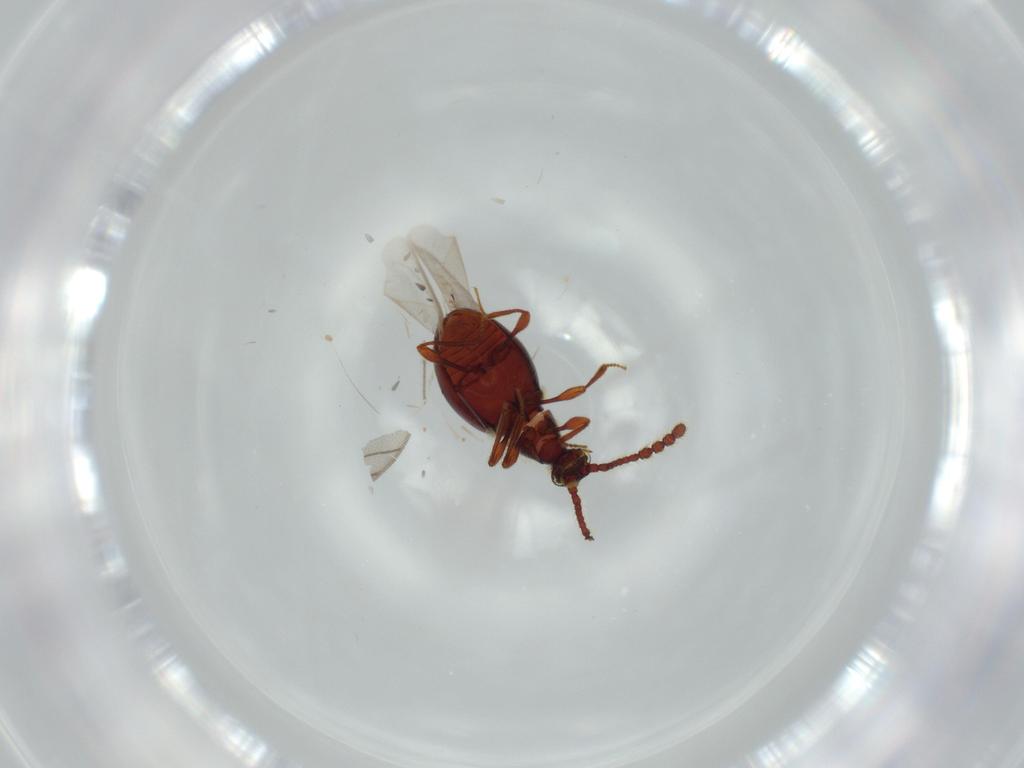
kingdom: Animalia
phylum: Arthropoda
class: Insecta
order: Coleoptera
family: Staphylinidae
